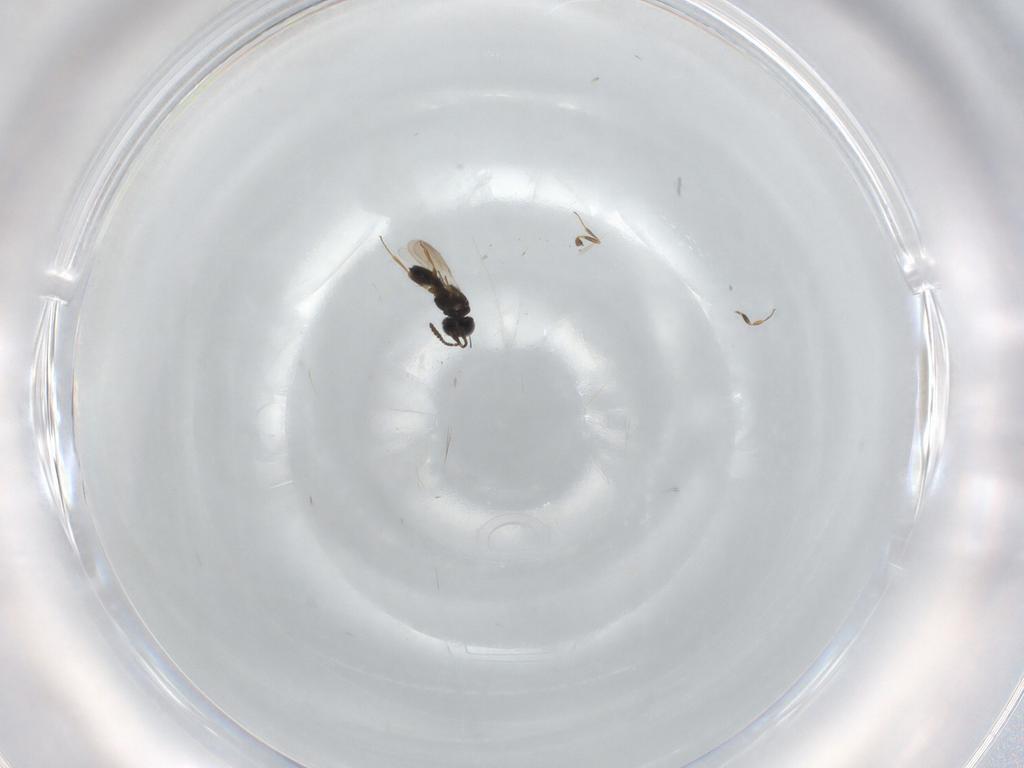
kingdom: Animalia
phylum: Arthropoda
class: Insecta
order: Hymenoptera
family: Scelionidae
